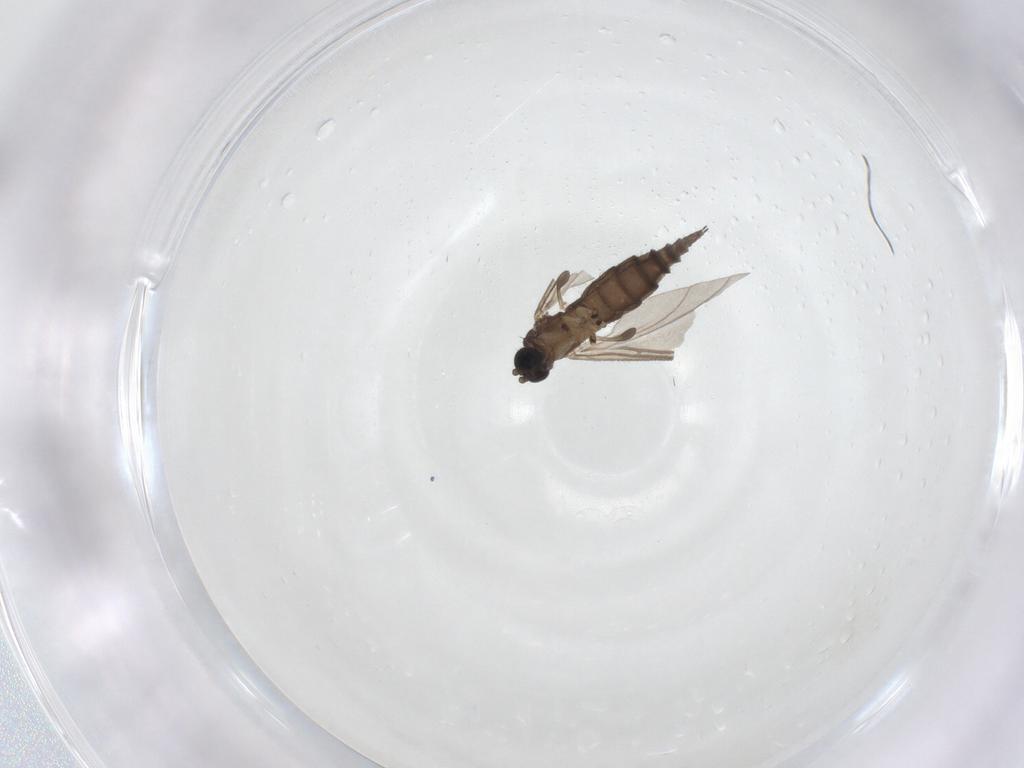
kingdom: Animalia
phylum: Arthropoda
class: Insecta
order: Diptera
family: Sciaridae
